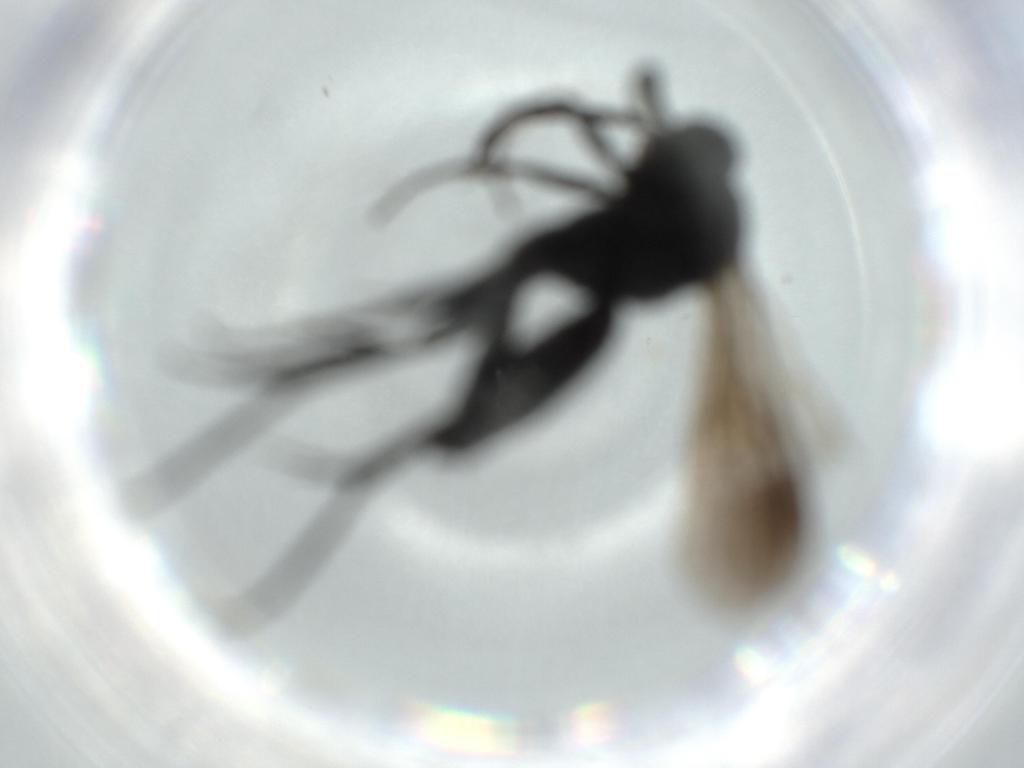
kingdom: Animalia
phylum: Arthropoda
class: Insecta
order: Hymenoptera
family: Pompilidae
